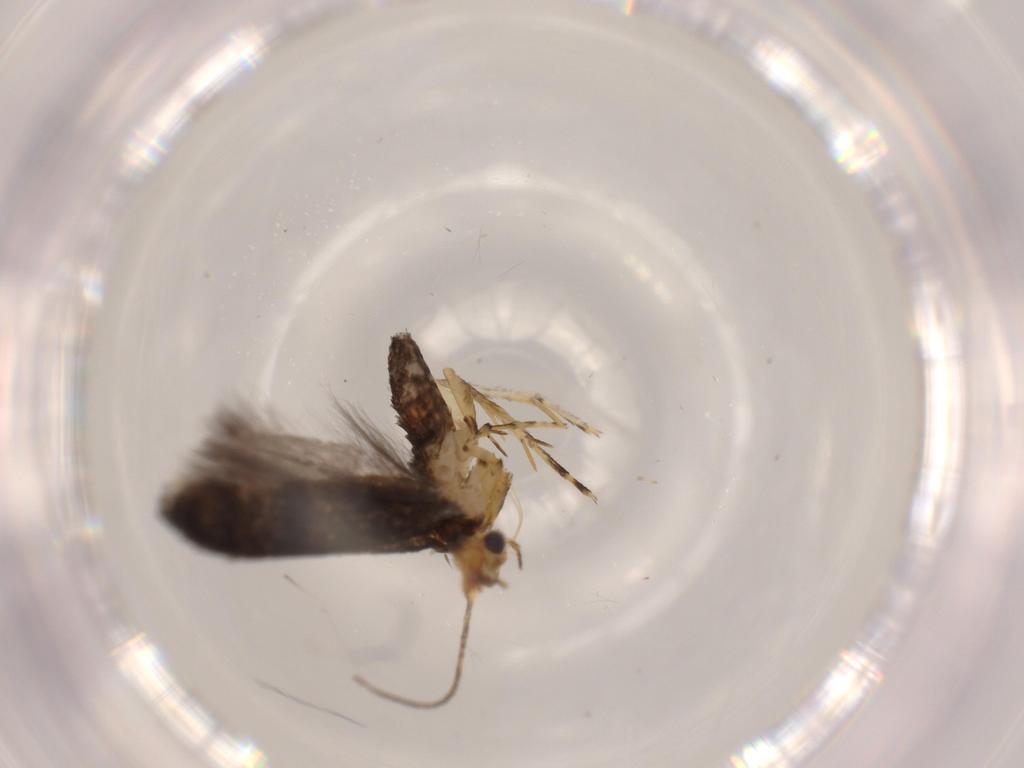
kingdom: Animalia
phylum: Arthropoda
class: Insecta
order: Lepidoptera
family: Argyresthiidae
